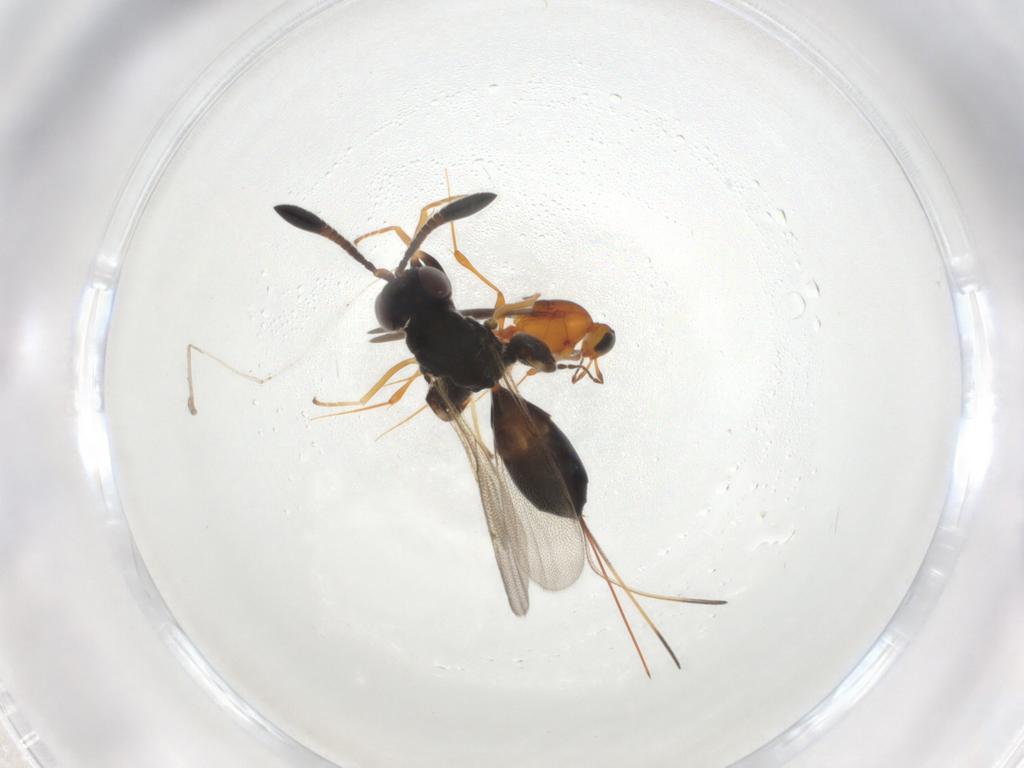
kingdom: Animalia
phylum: Arthropoda
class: Insecta
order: Hymenoptera
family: Platygastridae
